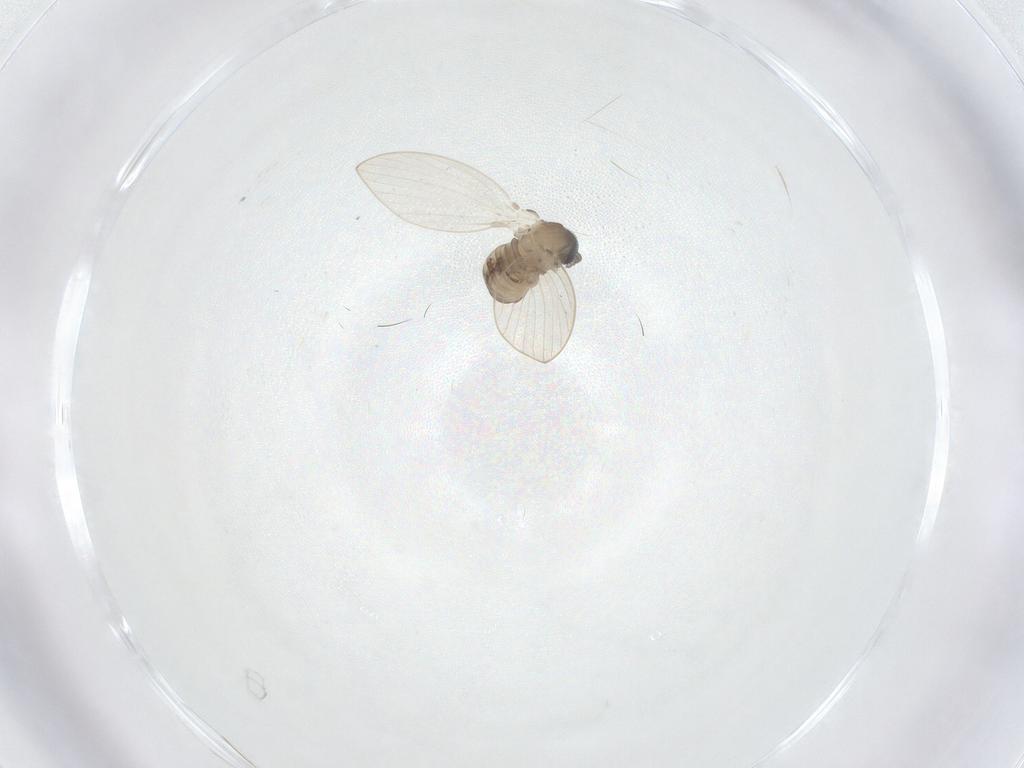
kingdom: Animalia
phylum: Arthropoda
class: Insecta
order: Diptera
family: Psychodidae
